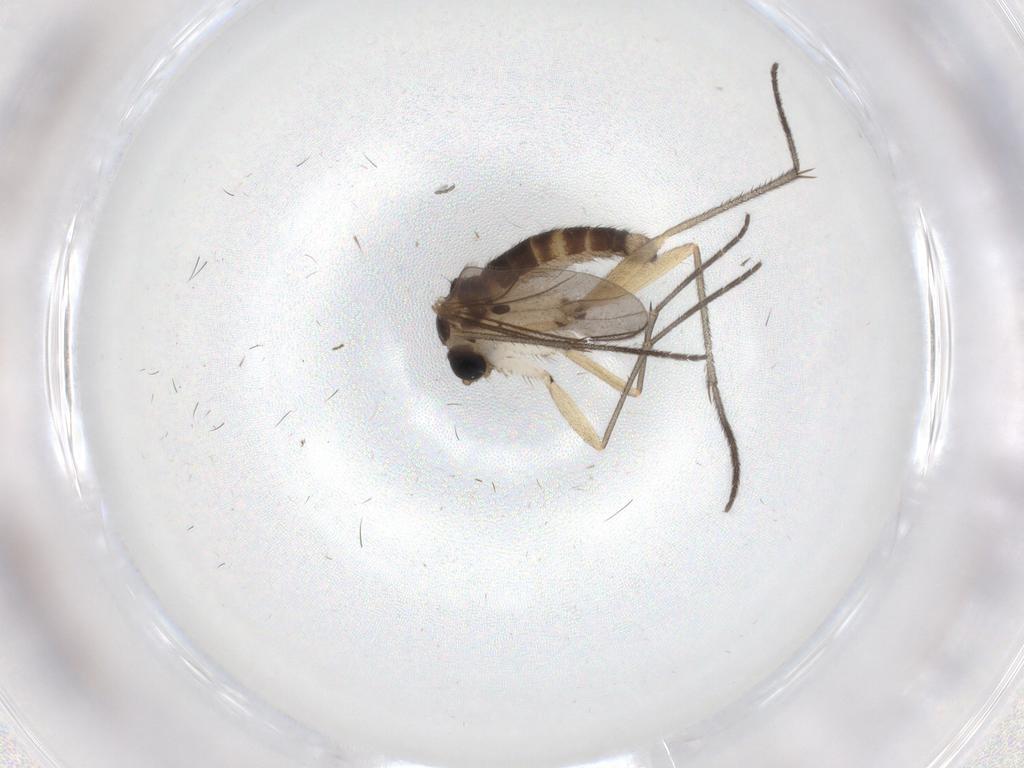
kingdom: Animalia
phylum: Arthropoda
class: Insecta
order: Diptera
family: Sciaridae
